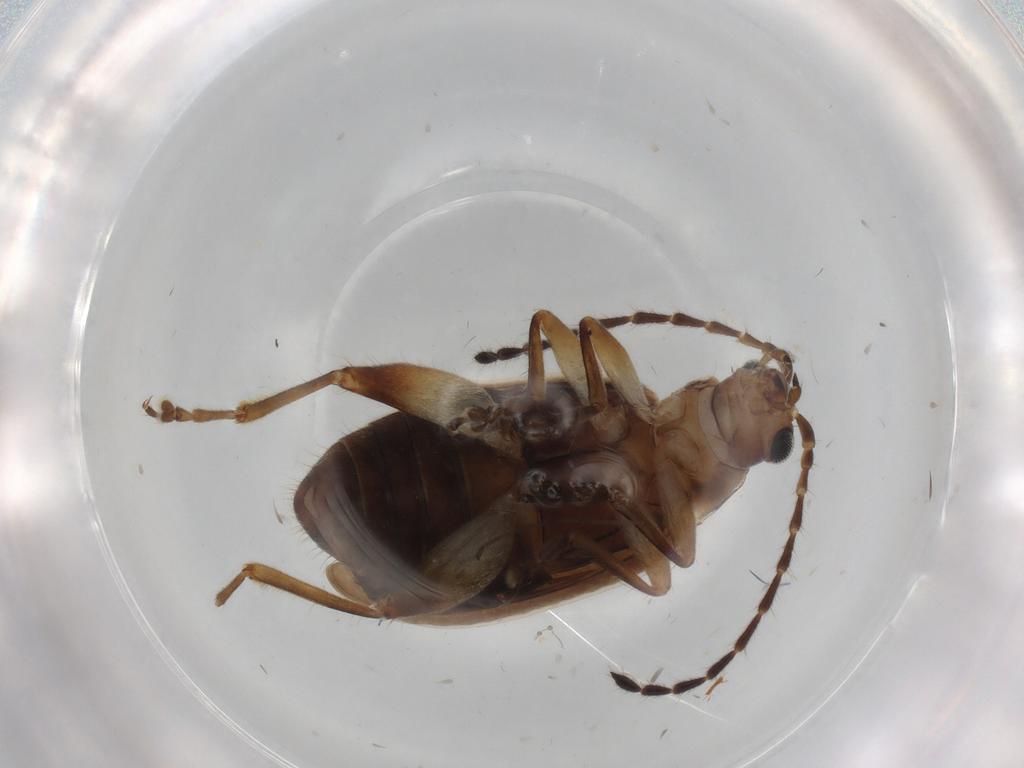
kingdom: Animalia
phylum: Arthropoda
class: Insecta
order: Coleoptera
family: Chrysomelidae
